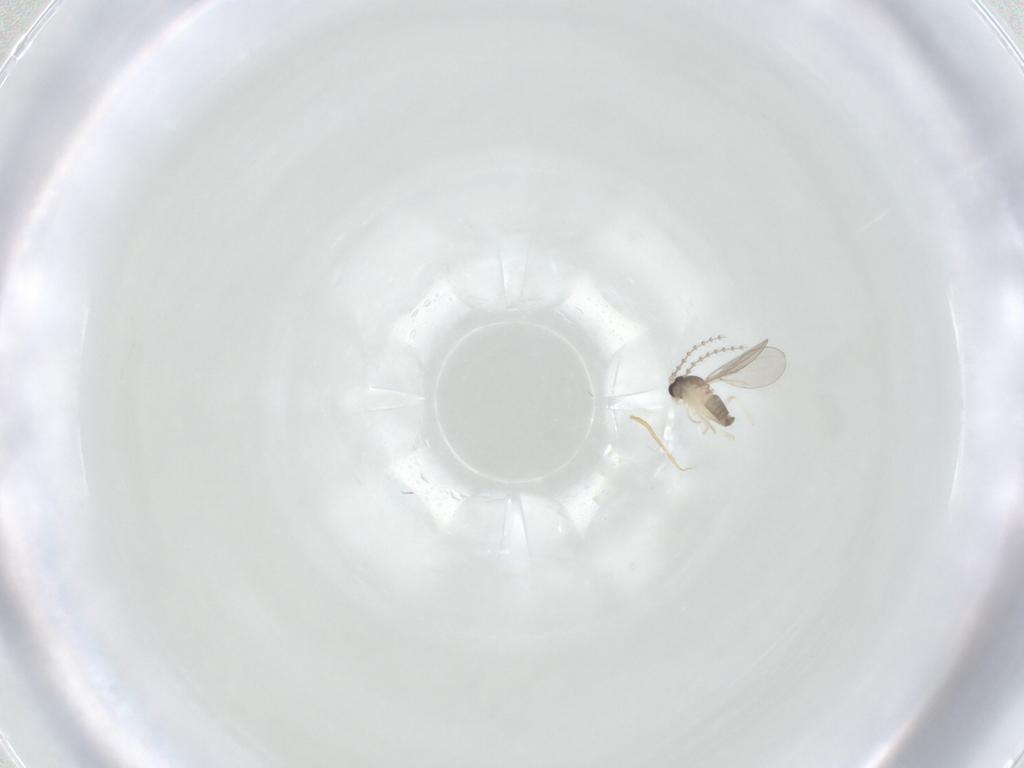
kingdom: Animalia
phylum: Arthropoda
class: Insecta
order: Diptera
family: Cecidomyiidae
